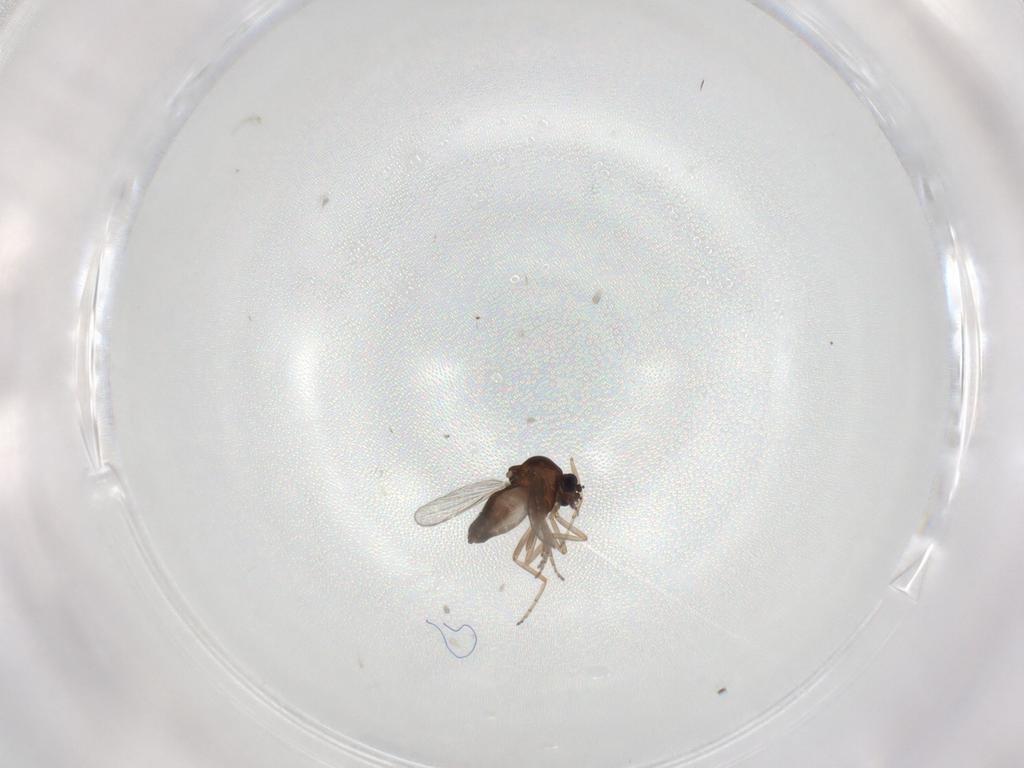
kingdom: Animalia
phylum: Arthropoda
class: Insecta
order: Diptera
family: Ceratopogonidae
